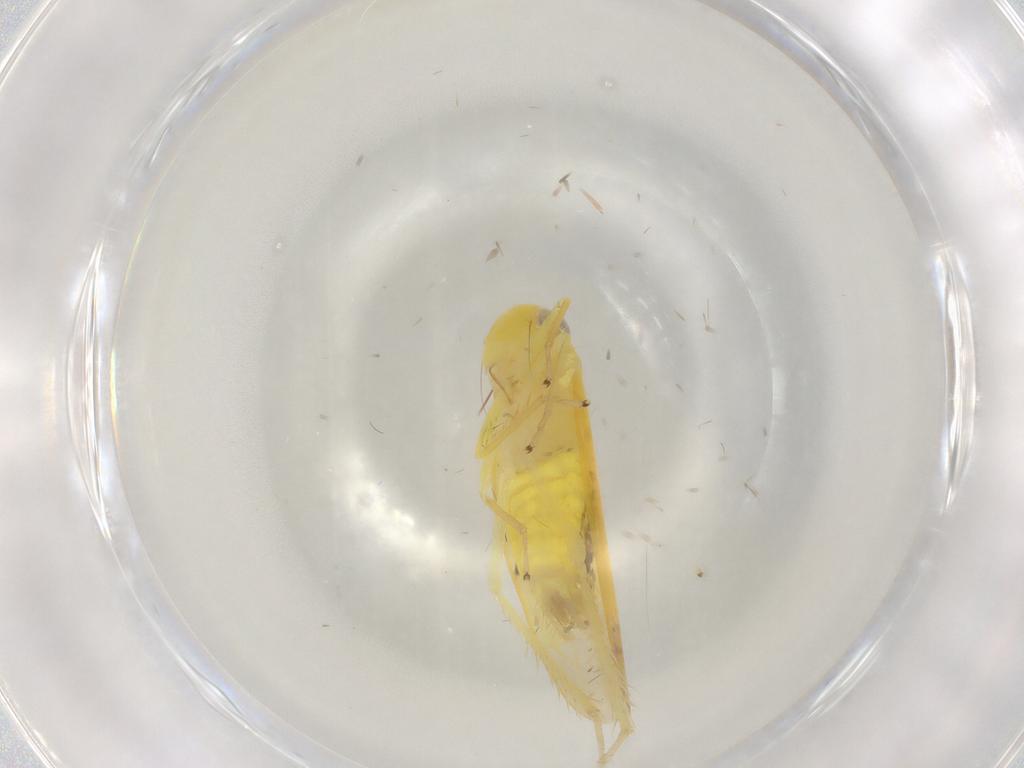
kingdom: Animalia
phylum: Arthropoda
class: Insecta
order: Hemiptera
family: Cicadellidae
